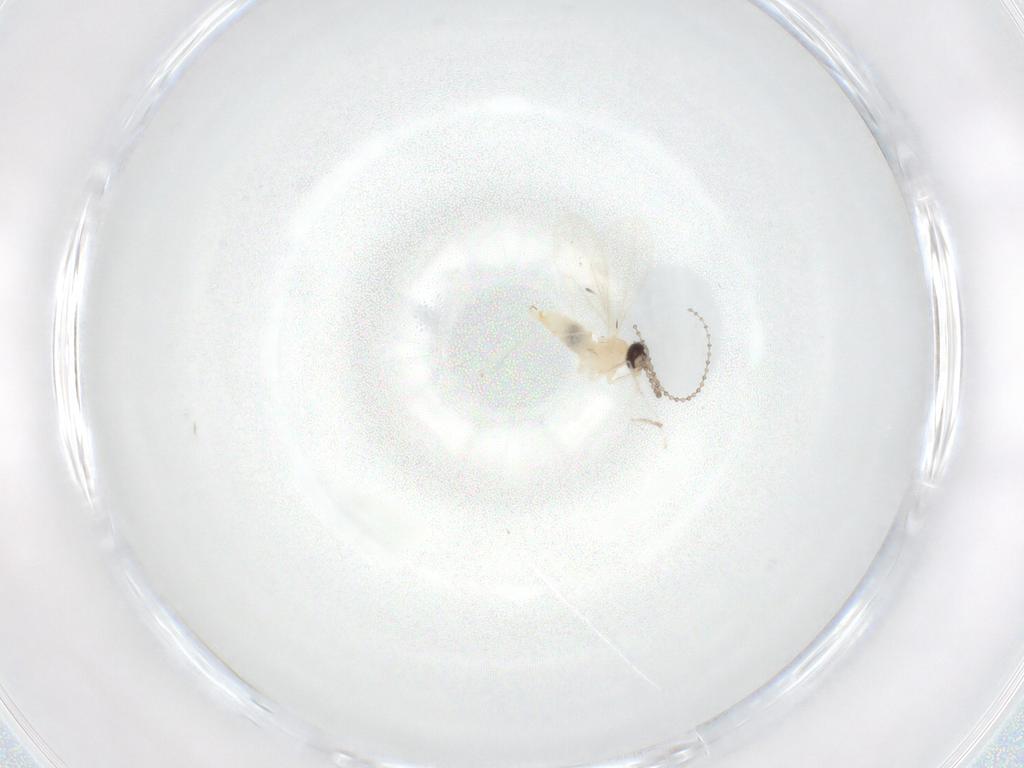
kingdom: Animalia
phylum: Arthropoda
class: Insecta
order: Diptera
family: Cecidomyiidae
